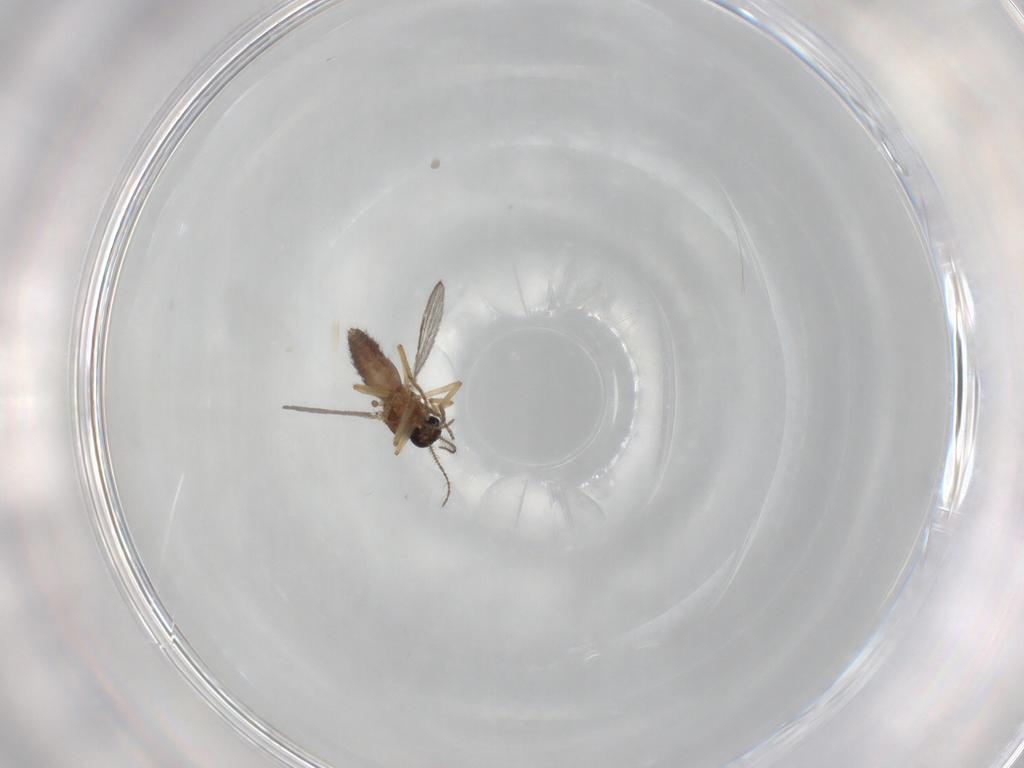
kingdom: Animalia
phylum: Arthropoda
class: Insecta
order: Diptera
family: Ceratopogonidae
